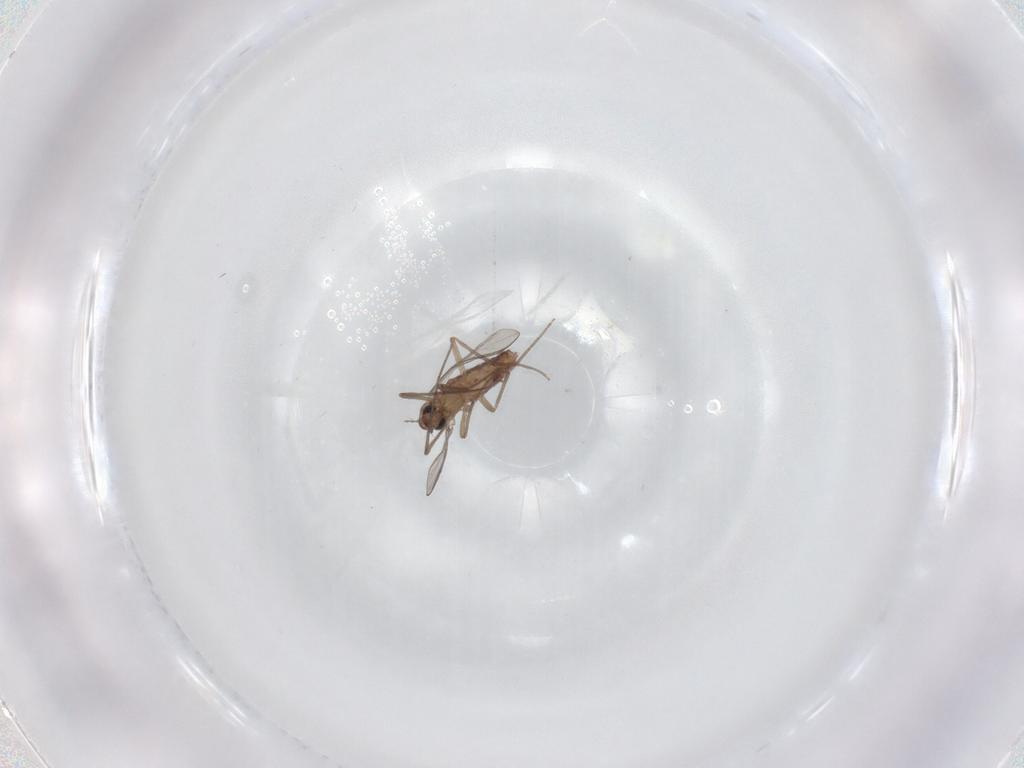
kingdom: Animalia
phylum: Arthropoda
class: Insecta
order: Diptera
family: Chironomidae
